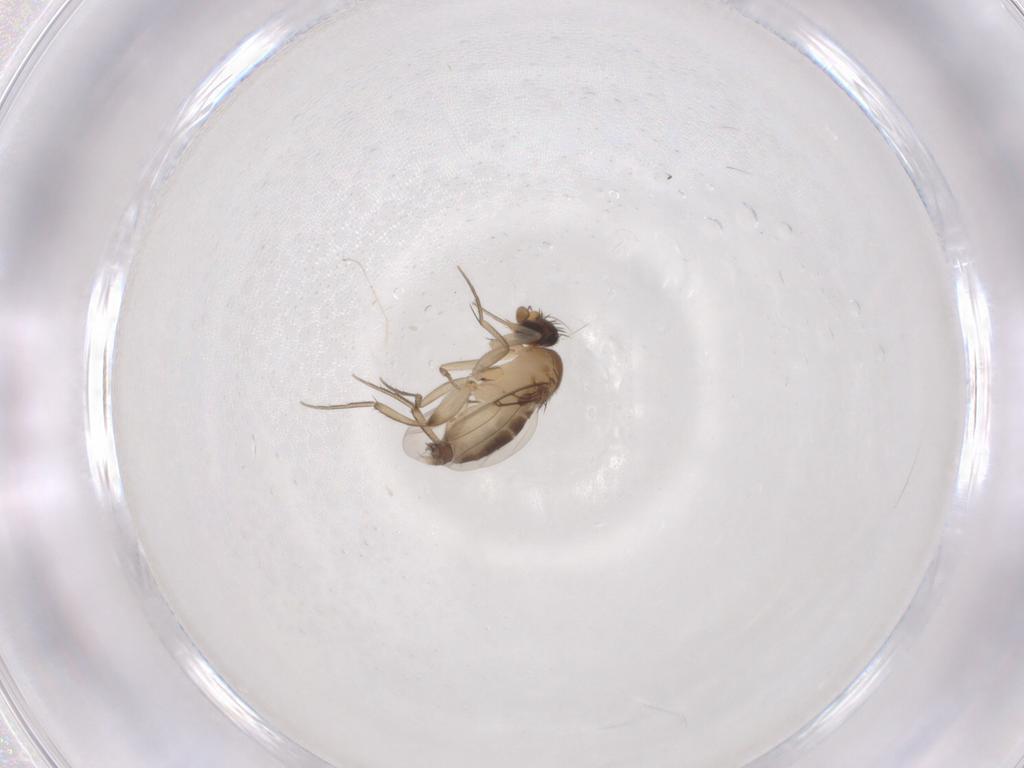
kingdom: Animalia
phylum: Arthropoda
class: Insecta
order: Diptera
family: Phoridae
